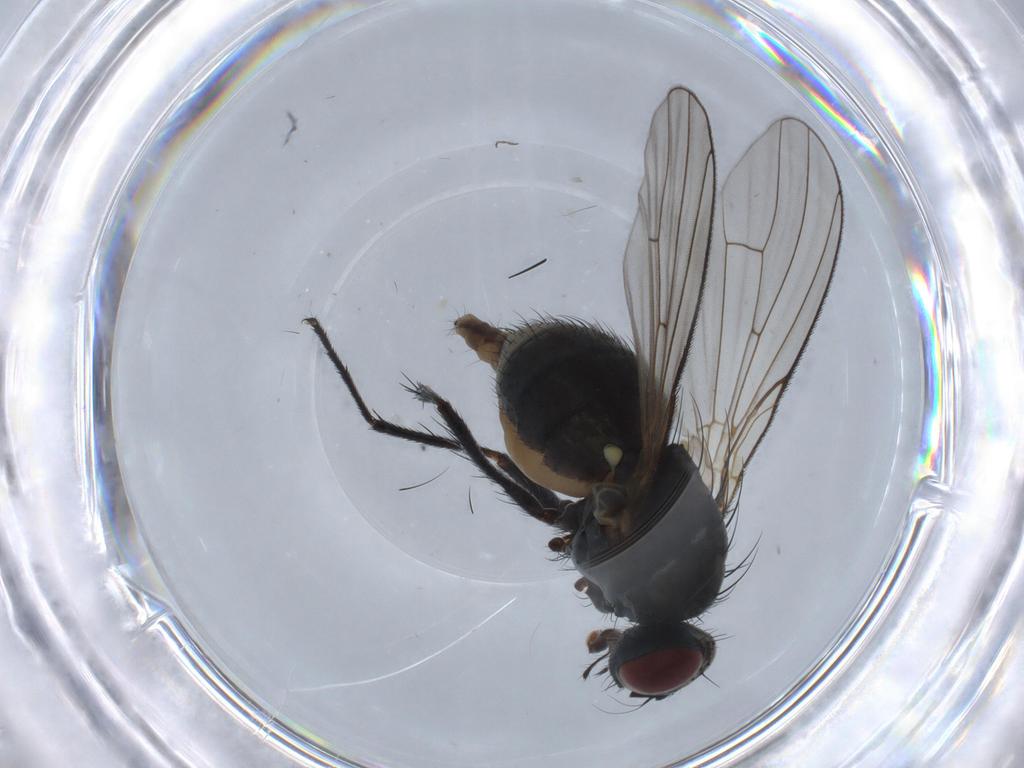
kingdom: Animalia
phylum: Arthropoda
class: Insecta
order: Diptera
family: Muscidae
